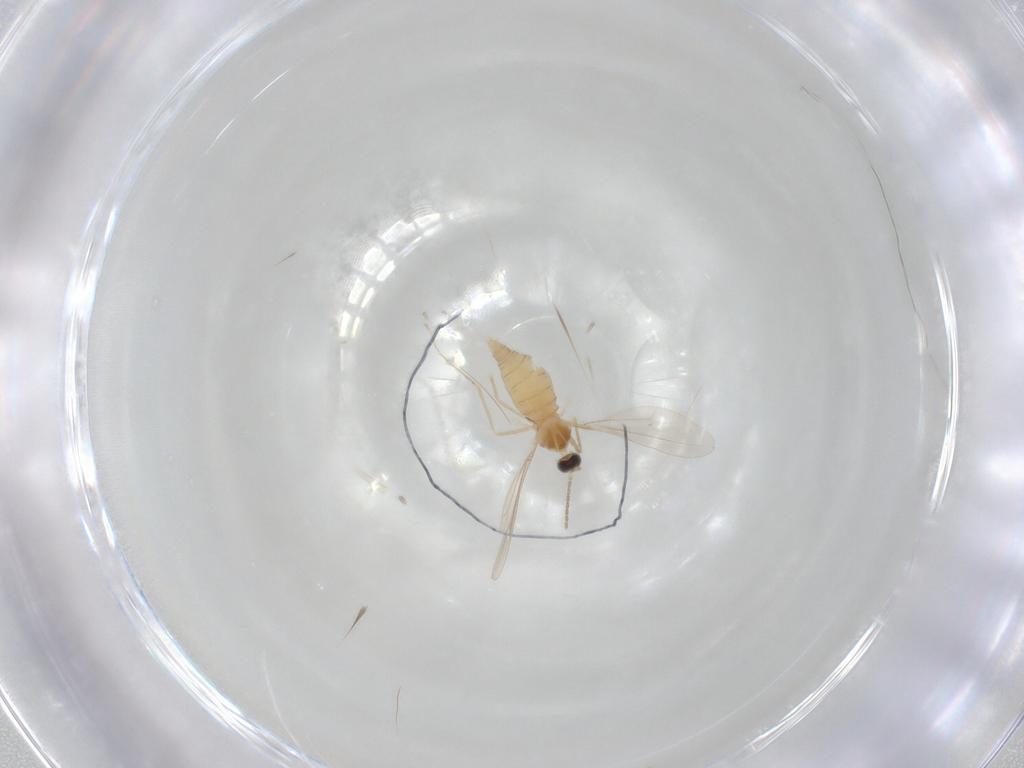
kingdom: Animalia
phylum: Arthropoda
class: Insecta
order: Diptera
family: Cecidomyiidae
